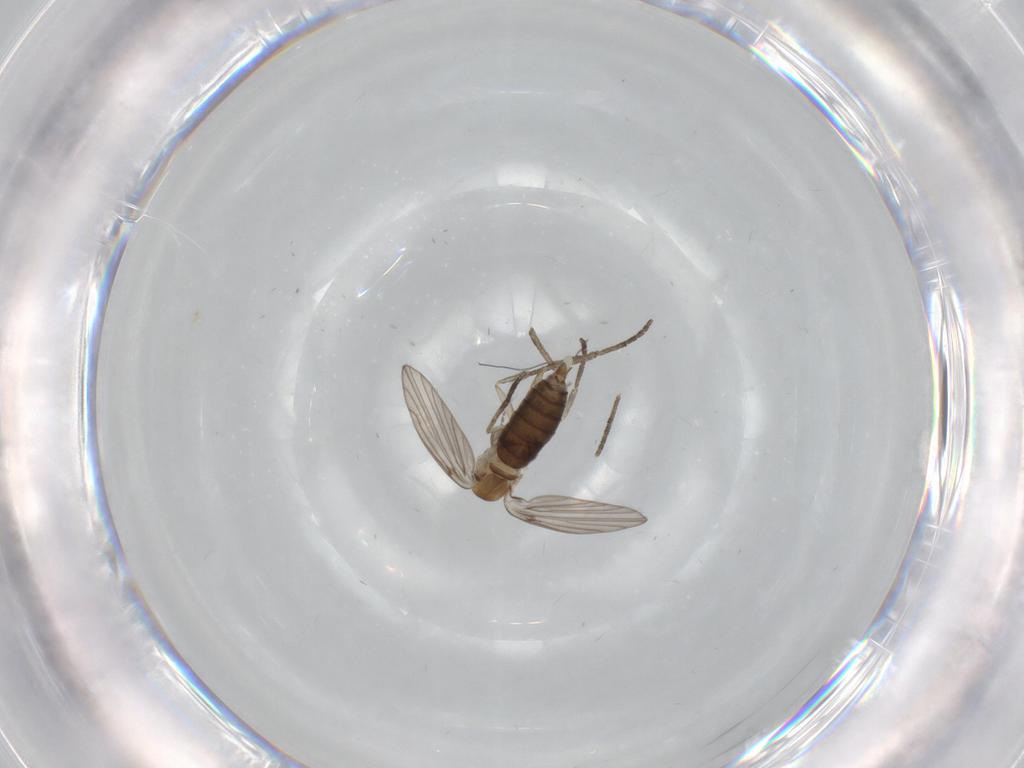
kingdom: Animalia
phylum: Arthropoda
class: Insecta
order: Diptera
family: Psychodidae
